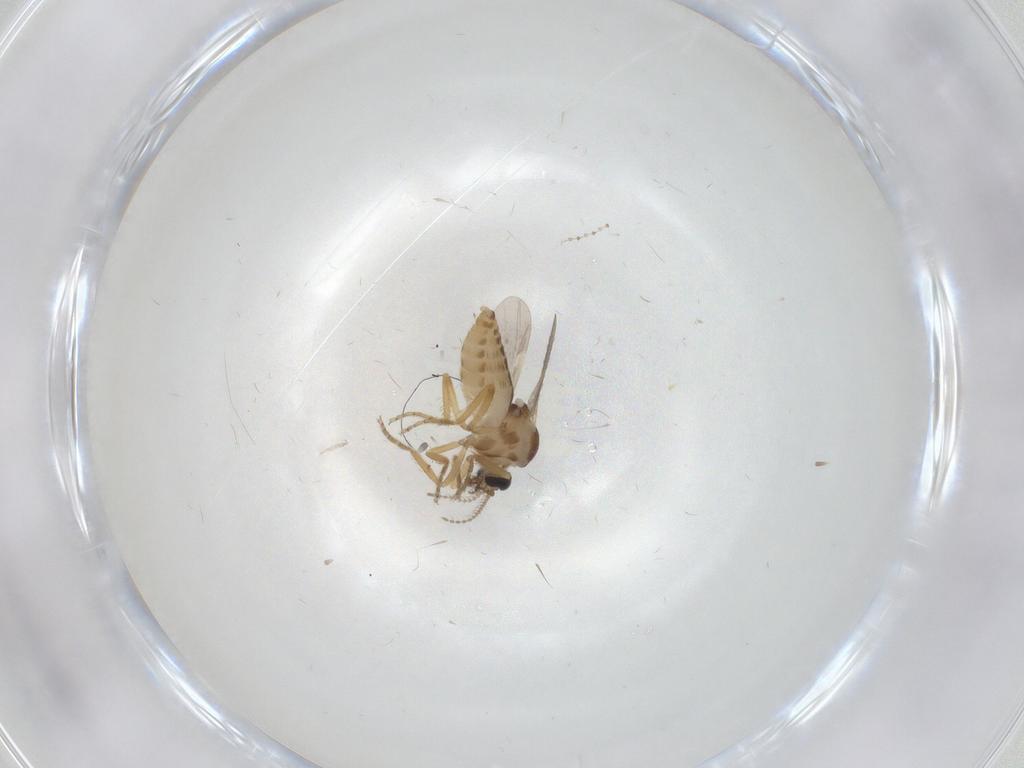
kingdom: Animalia
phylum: Arthropoda
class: Insecta
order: Diptera
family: Ceratopogonidae
